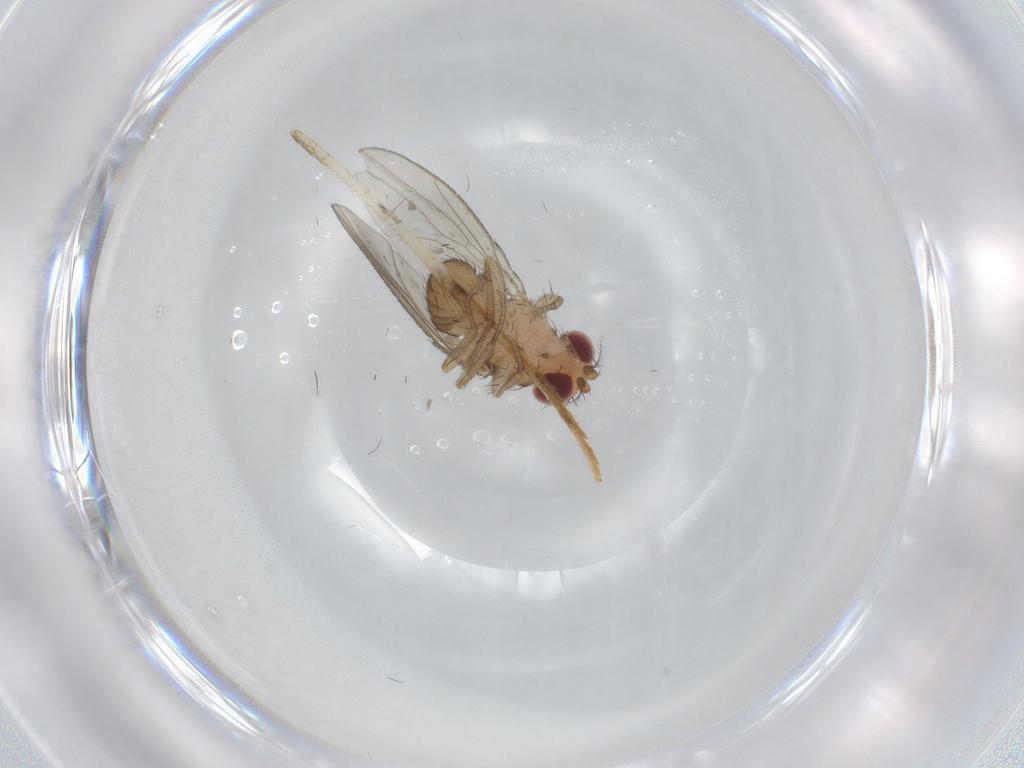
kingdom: Animalia
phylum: Arthropoda
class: Insecta
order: Diptera
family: Drosophilidae
